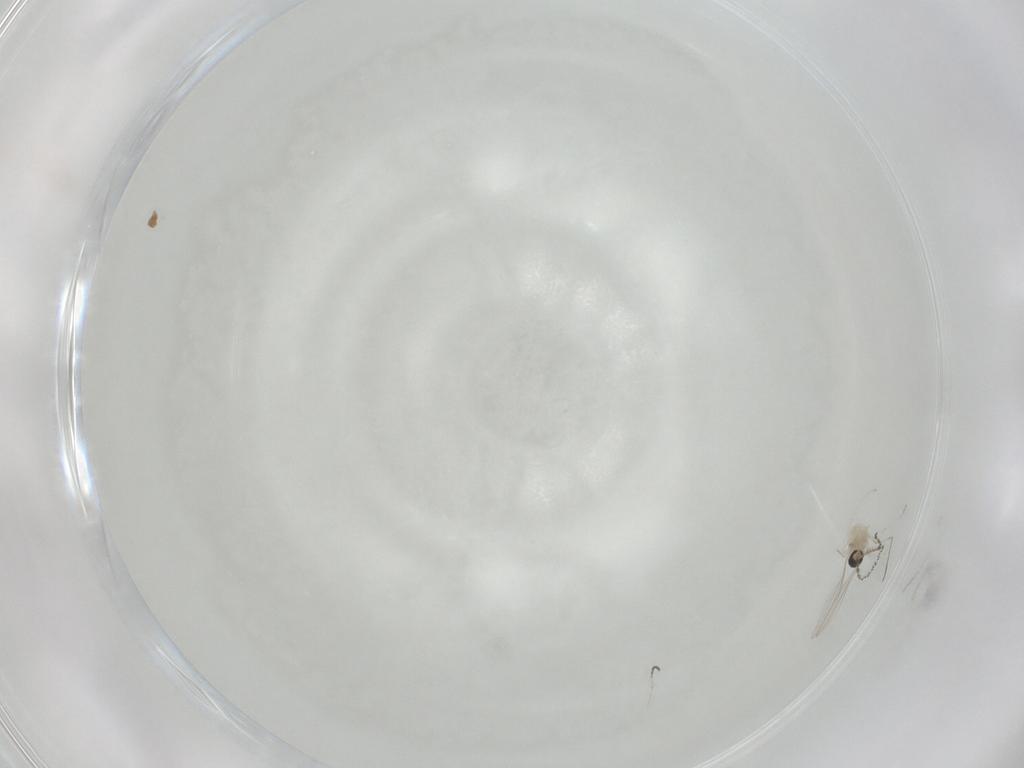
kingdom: Animalia
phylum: Arthropoda
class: Insecta
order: Diptera
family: Cecidomyiidae
